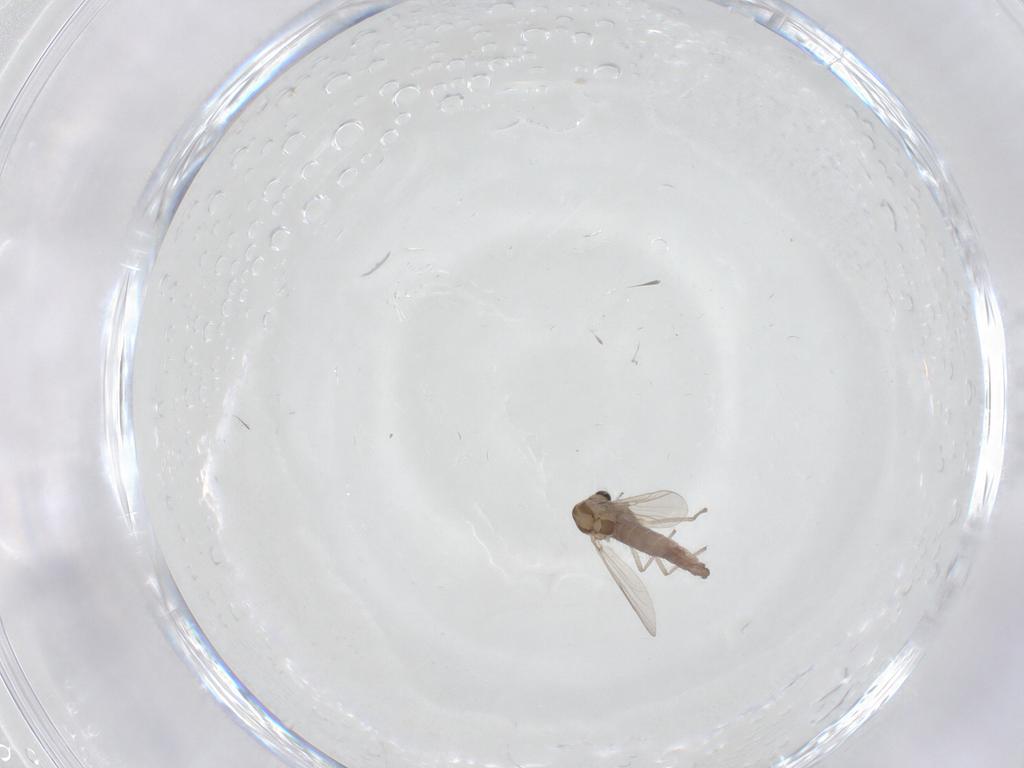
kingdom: Animalia
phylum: Arthropoda
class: Insecta
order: Diptera
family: Chironomidae
